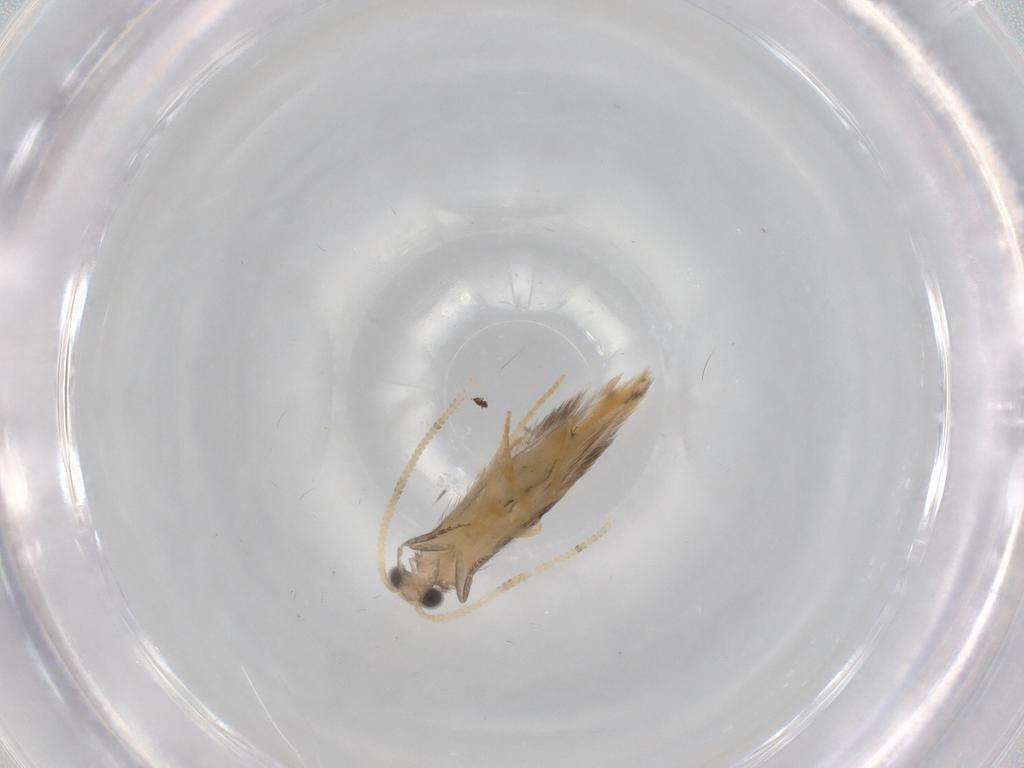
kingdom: Animalia
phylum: Arthropoda
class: Insecta
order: Trichoptera
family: Hydroptilidae
